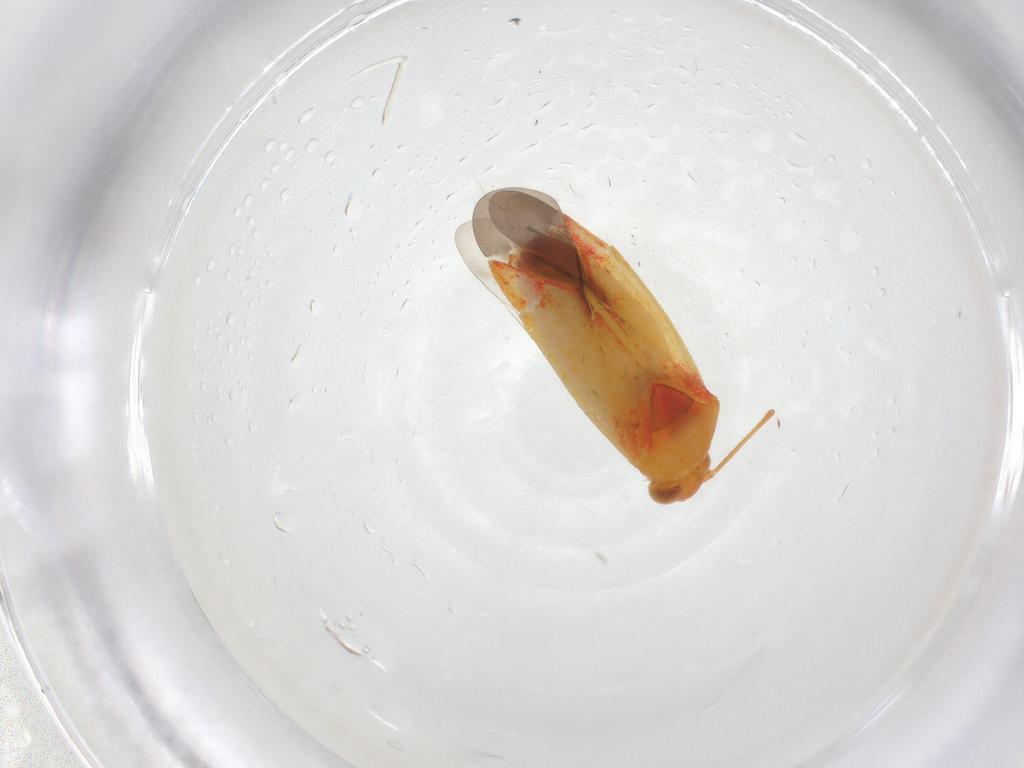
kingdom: Animalia
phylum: Arthropoda
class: Insecta
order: Hemiptera
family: Miridae
